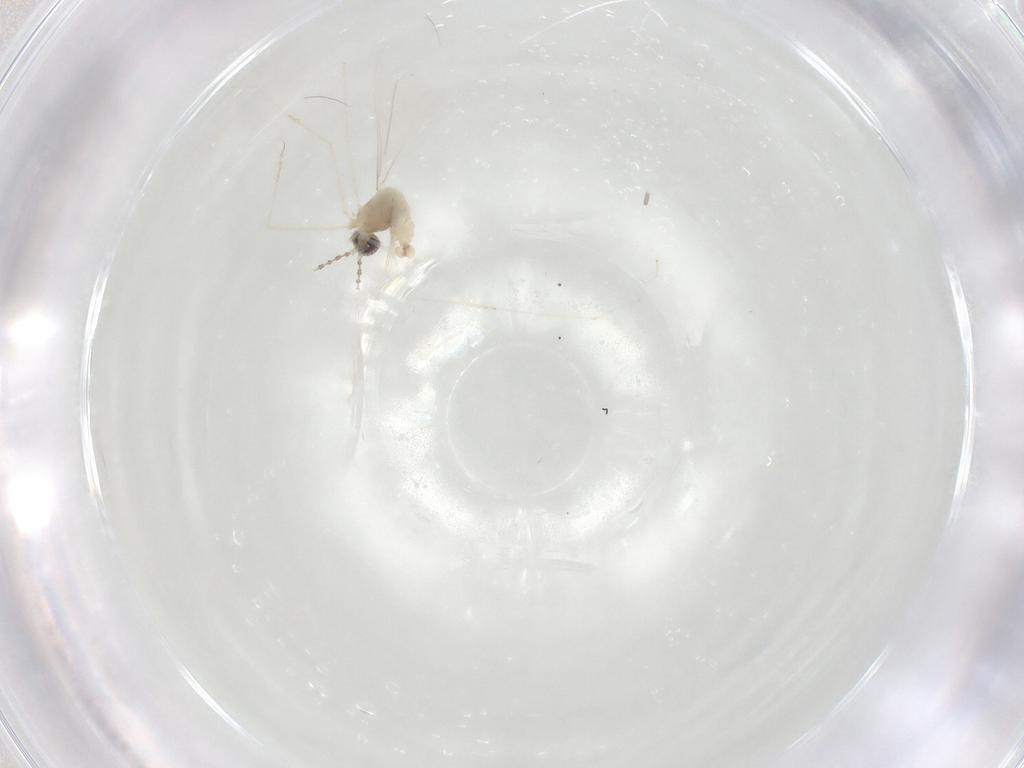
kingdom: Animalia
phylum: Arthropoda
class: Insecta
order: Diptera
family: Cecidomyiidae
